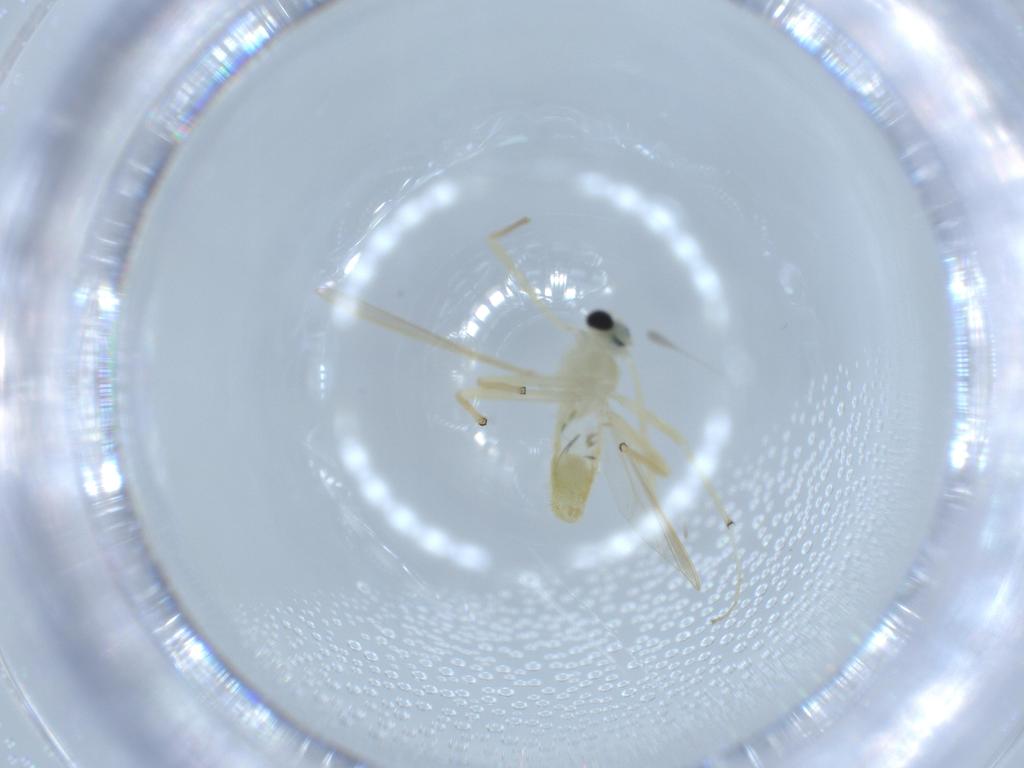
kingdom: Animalia
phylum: Arthropoda
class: Insecta
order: Diptera
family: Chironomidae
